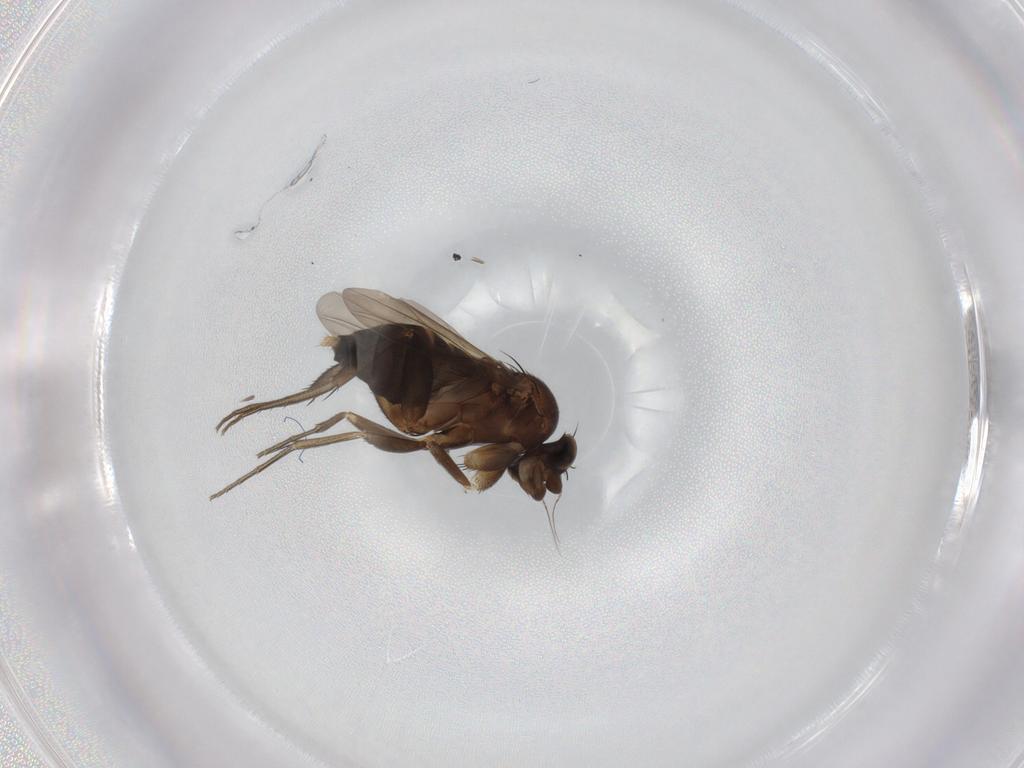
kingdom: Animalia
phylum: Arthropoda
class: Insecta
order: Diptera
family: Phoridae
